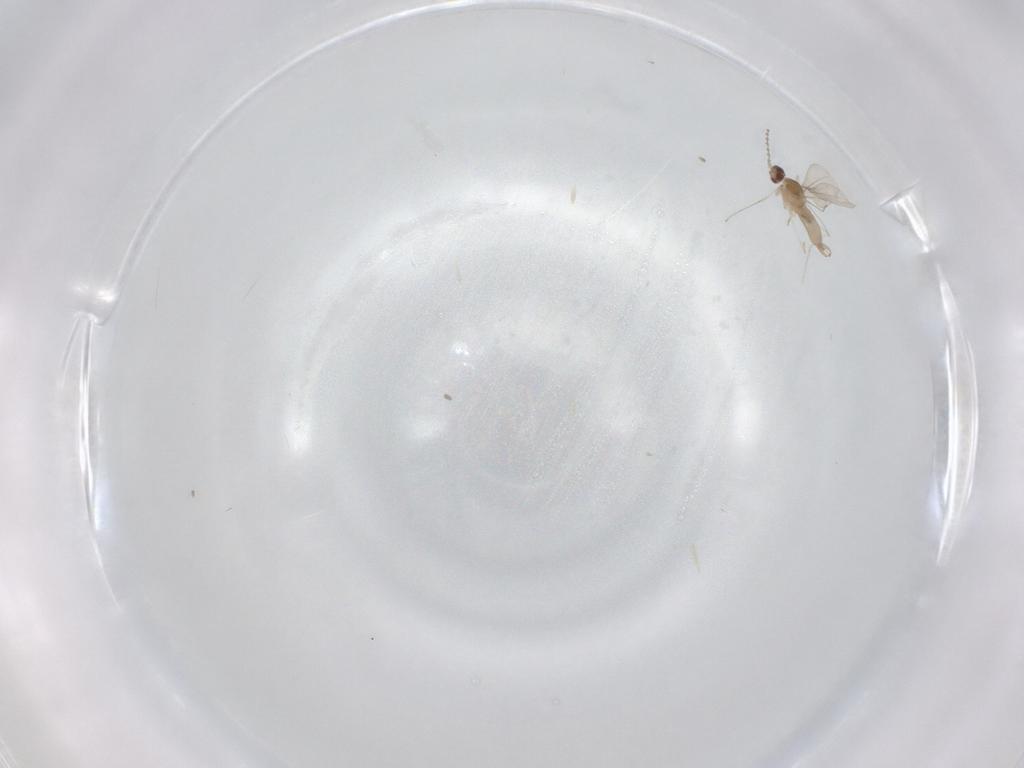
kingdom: Animalia
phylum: Arthropoda
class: Insecta
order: Diptera
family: Cecidomyiidae
